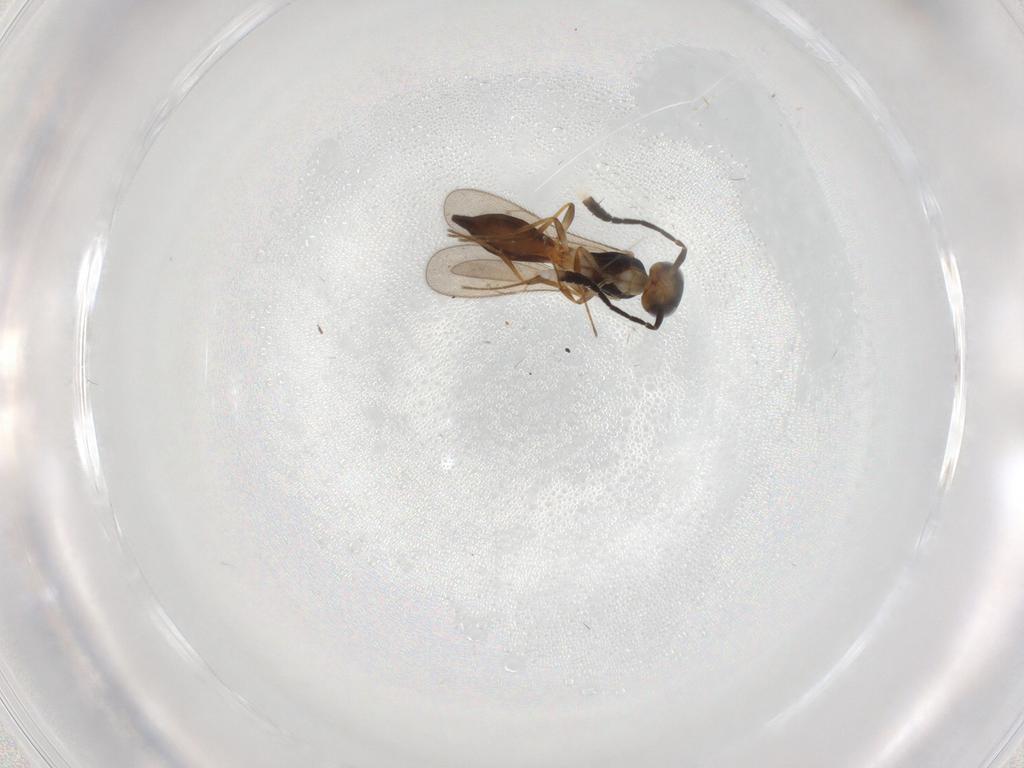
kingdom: Animalia
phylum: Arthropoda
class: Insecta
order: Hymenoptera
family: Scelionidae
